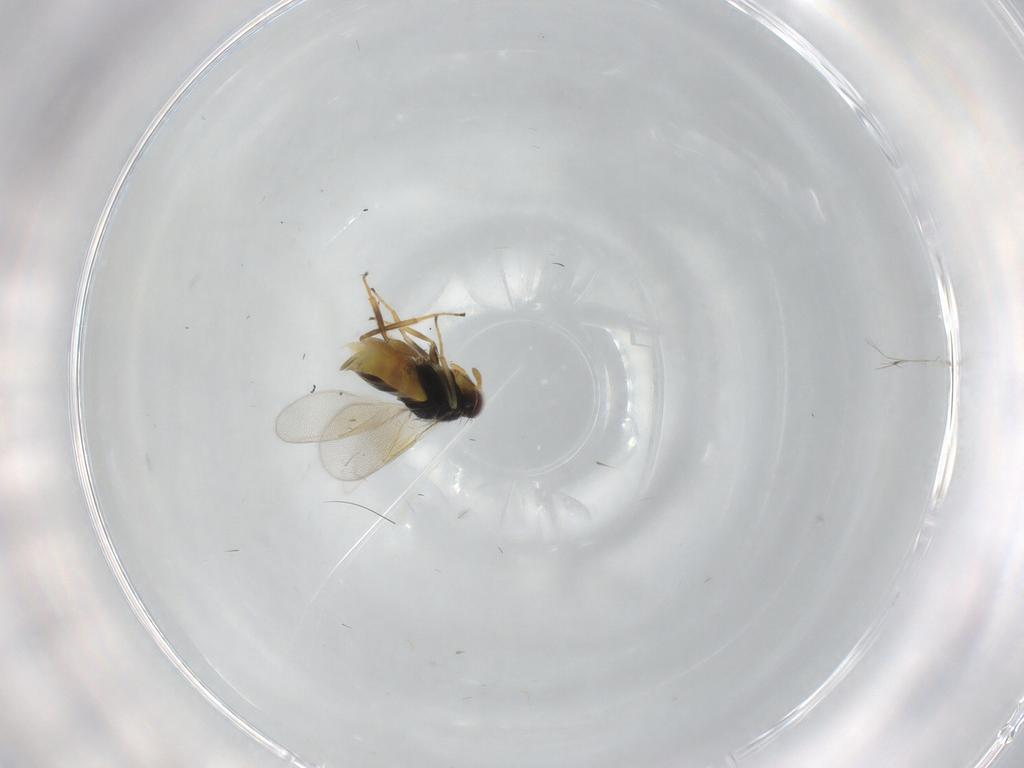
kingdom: Animalia
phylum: Arthropoda
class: Insecta
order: Hymenoptera
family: Aphelinidae
